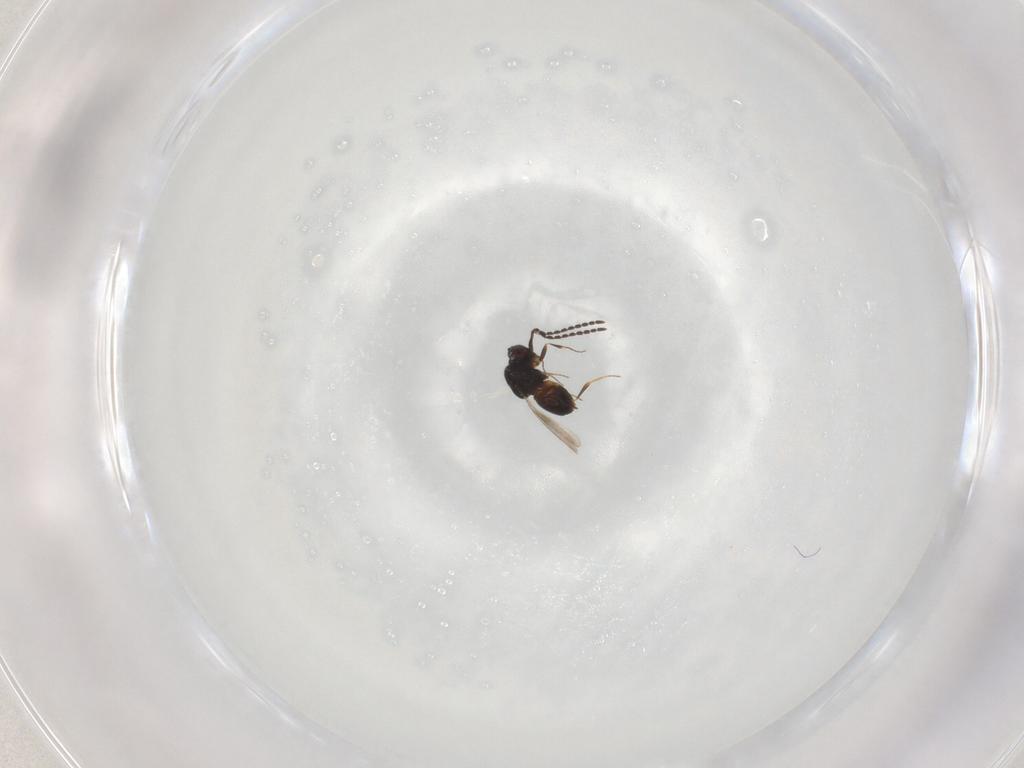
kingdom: Animalia
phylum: Arthropoda
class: Insecta
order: Hymenoptera
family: Ceraphronidae
